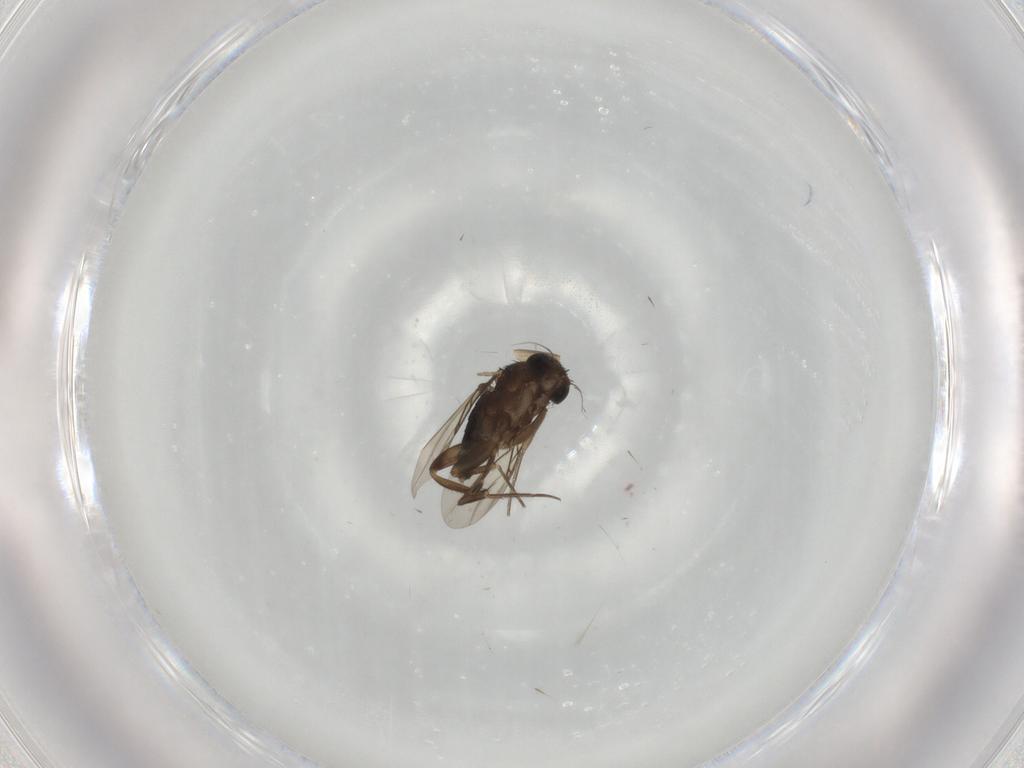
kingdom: Animalia
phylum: Arthropoda
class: Insecta
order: Diptera
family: Phoridae
